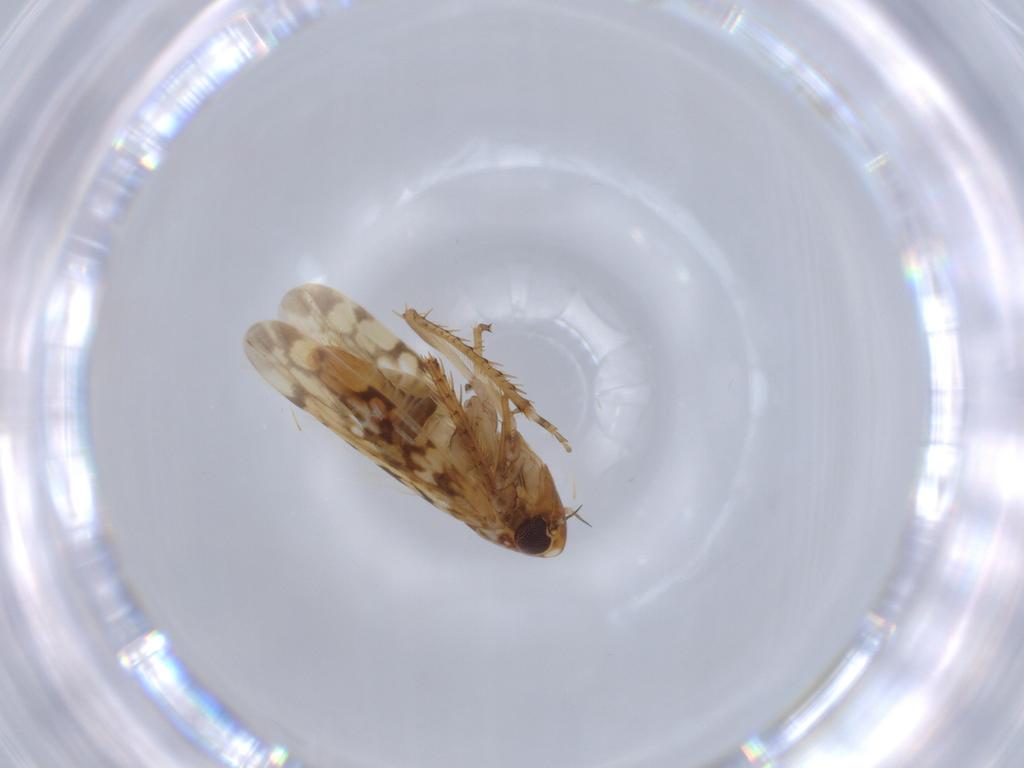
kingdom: Animalia
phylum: Arthropoda
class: Insecta
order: Hemiptera
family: Cicadellidae
